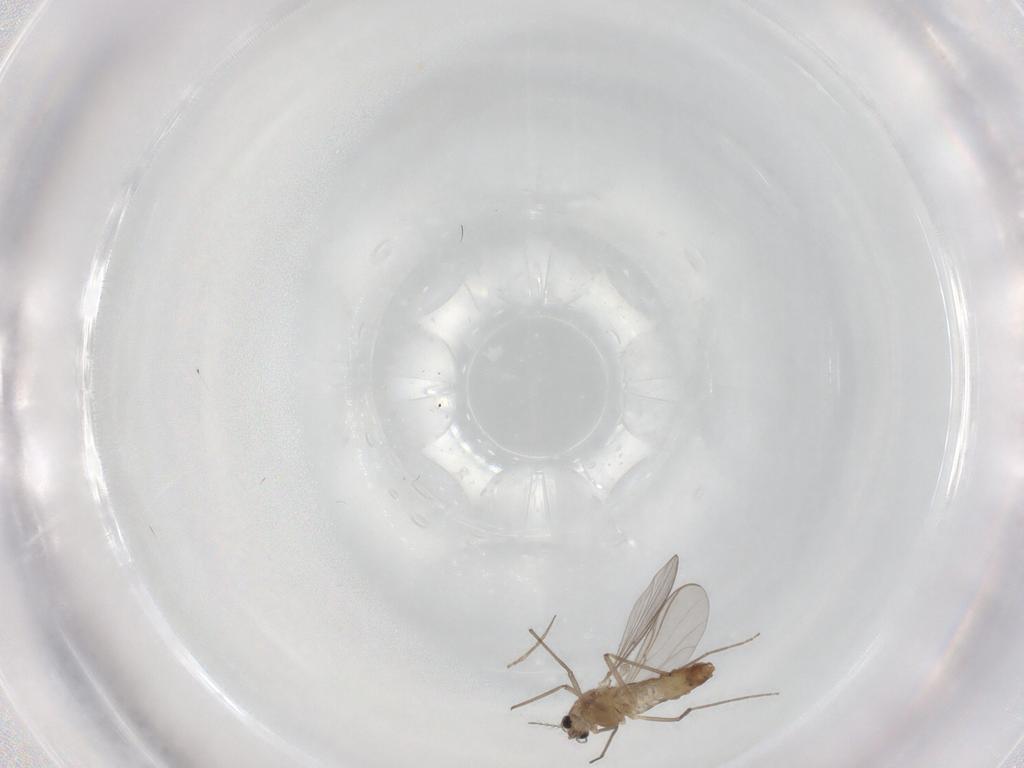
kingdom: Animalia
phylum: Arthropoda
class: Insecta
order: Diptera
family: Chironomidae
